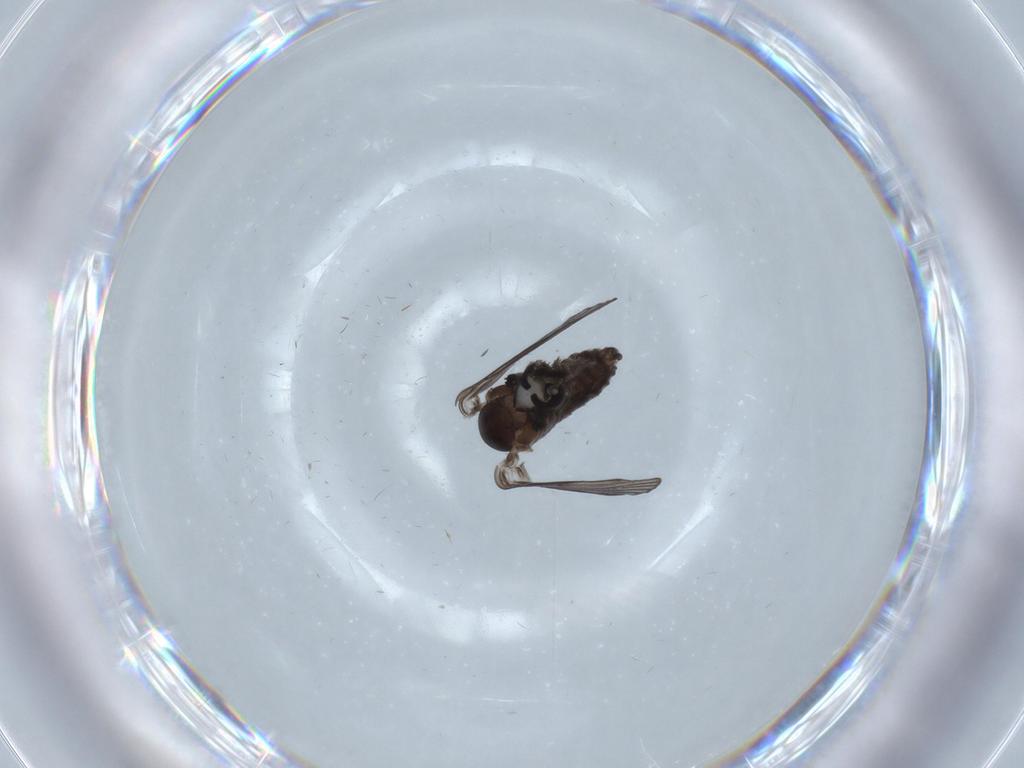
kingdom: Animalia
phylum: Arthropoda
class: Insecta
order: Diptera
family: Psychodidae
